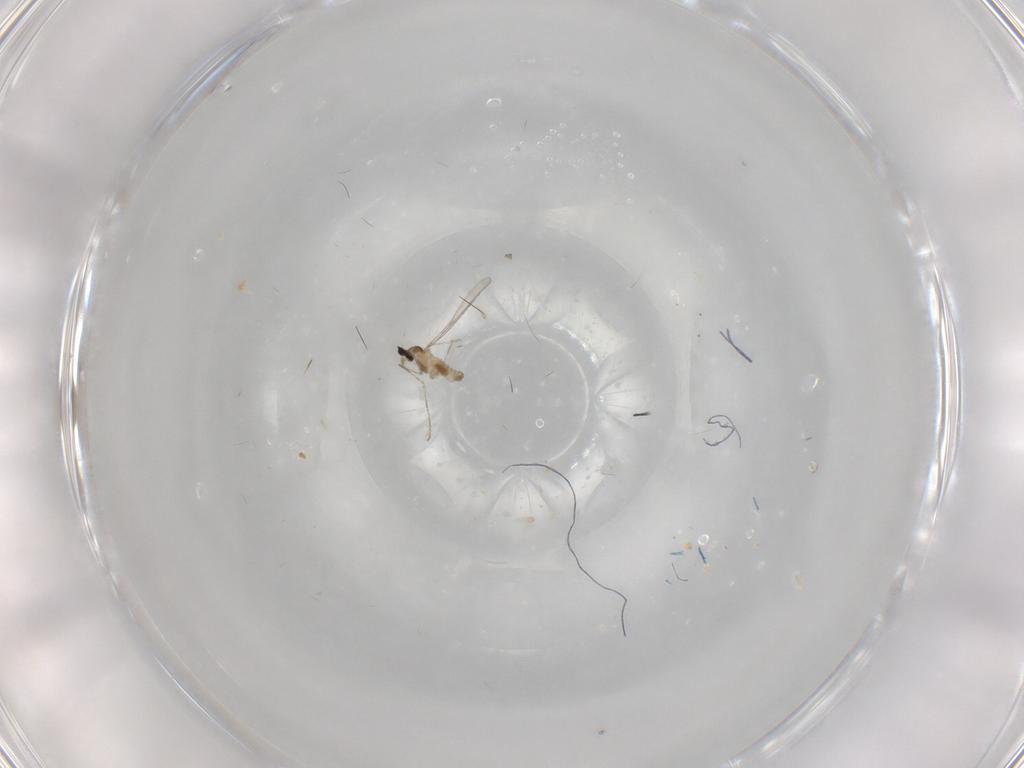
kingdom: Animalia
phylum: Arthropoda
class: Insecta
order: Diptera
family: Cecidomyiidae
